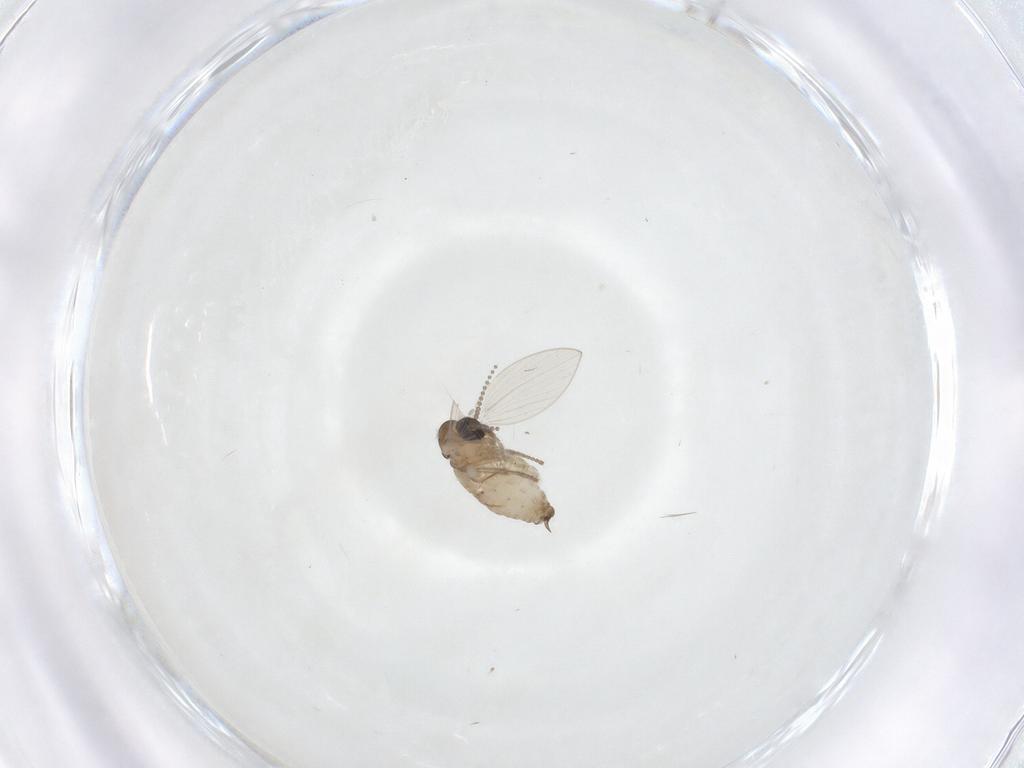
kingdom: Animalia
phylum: Arthropoda
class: Insecta
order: Diptera
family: Psychodidae
